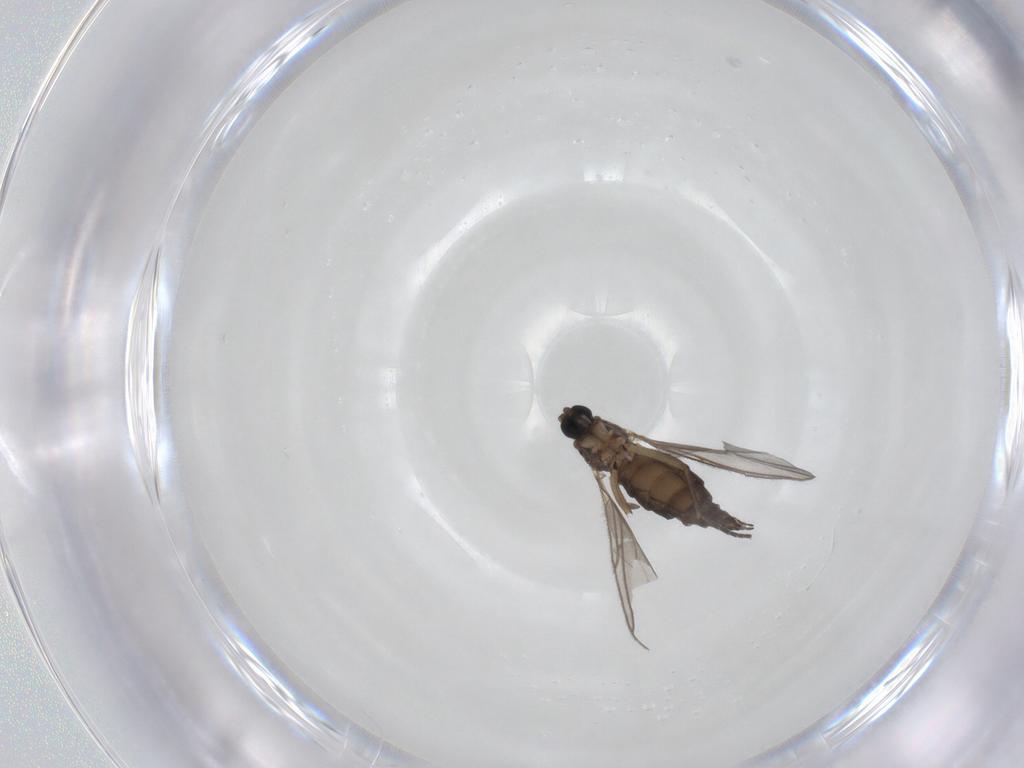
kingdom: Animalia
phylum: Arthropoda
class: Insecta
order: Diptera
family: Sciaridae
